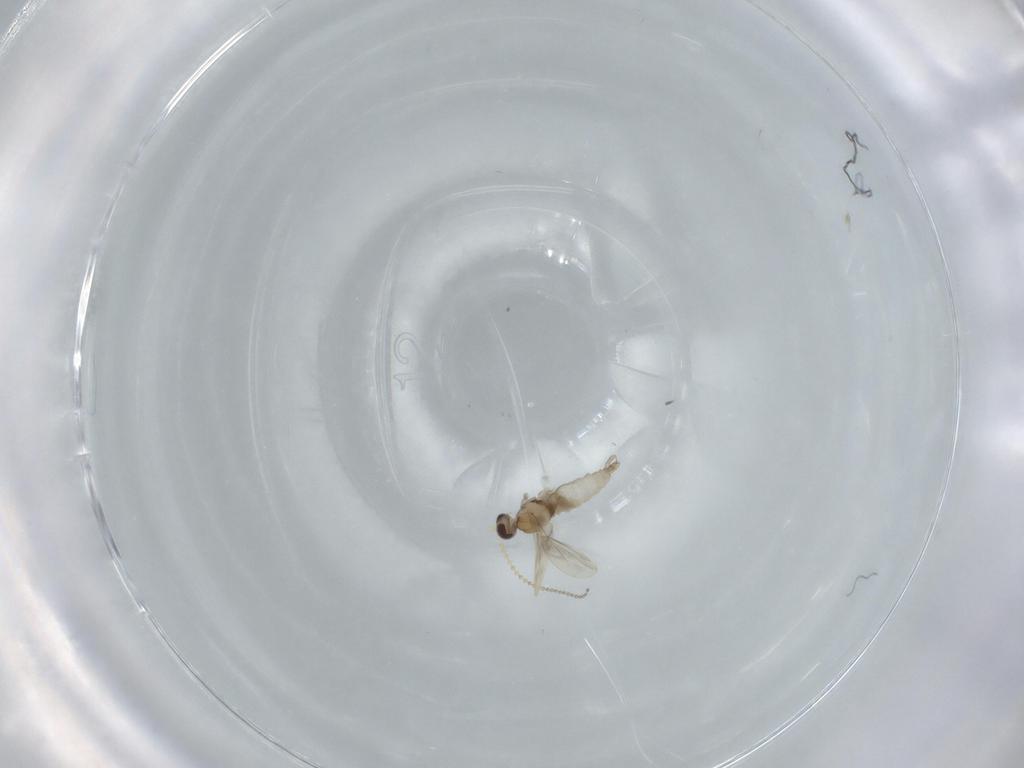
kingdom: Animalia
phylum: Arthropoda
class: Insecta
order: Diptera
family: Cecidomyiidae
